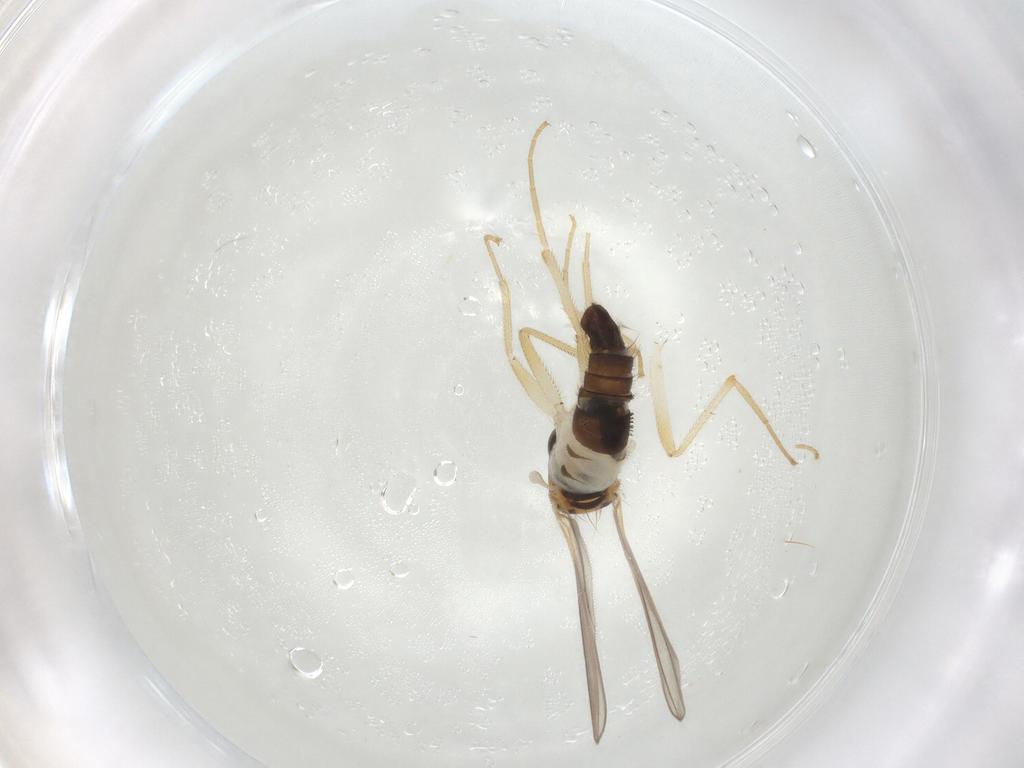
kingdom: Animalia
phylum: Arthropoda
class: Insecta
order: Diptera
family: Hybotidae
